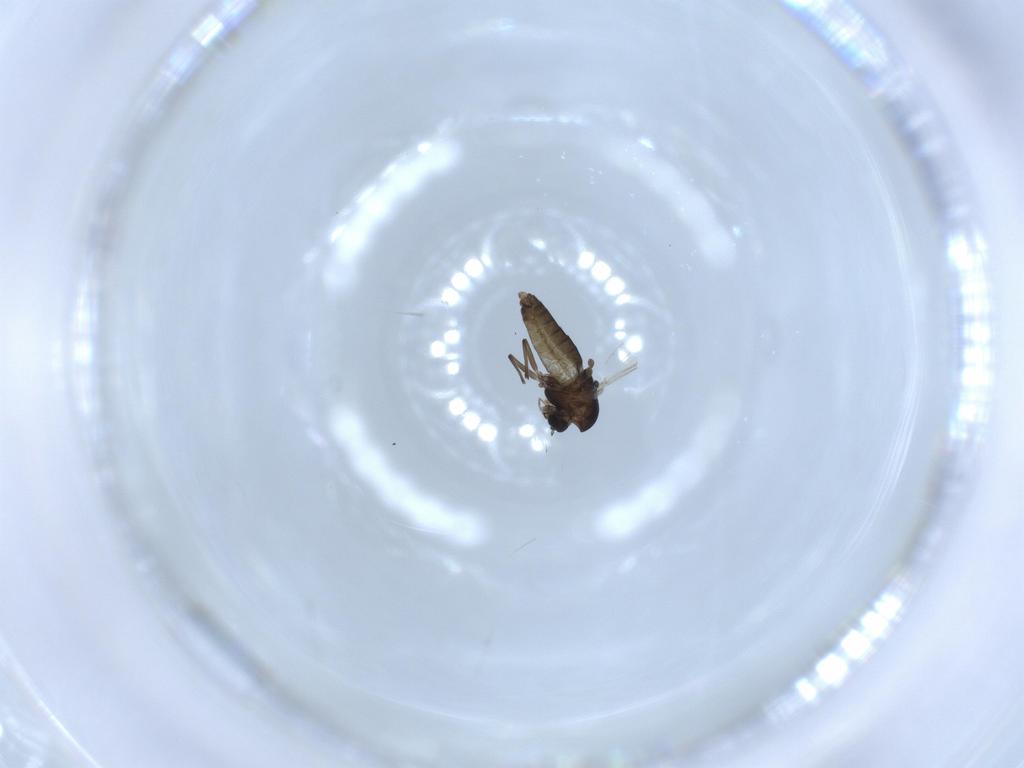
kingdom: Animalia
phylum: Arthropoda
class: Insecta
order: Diptera
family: Chironomidae
